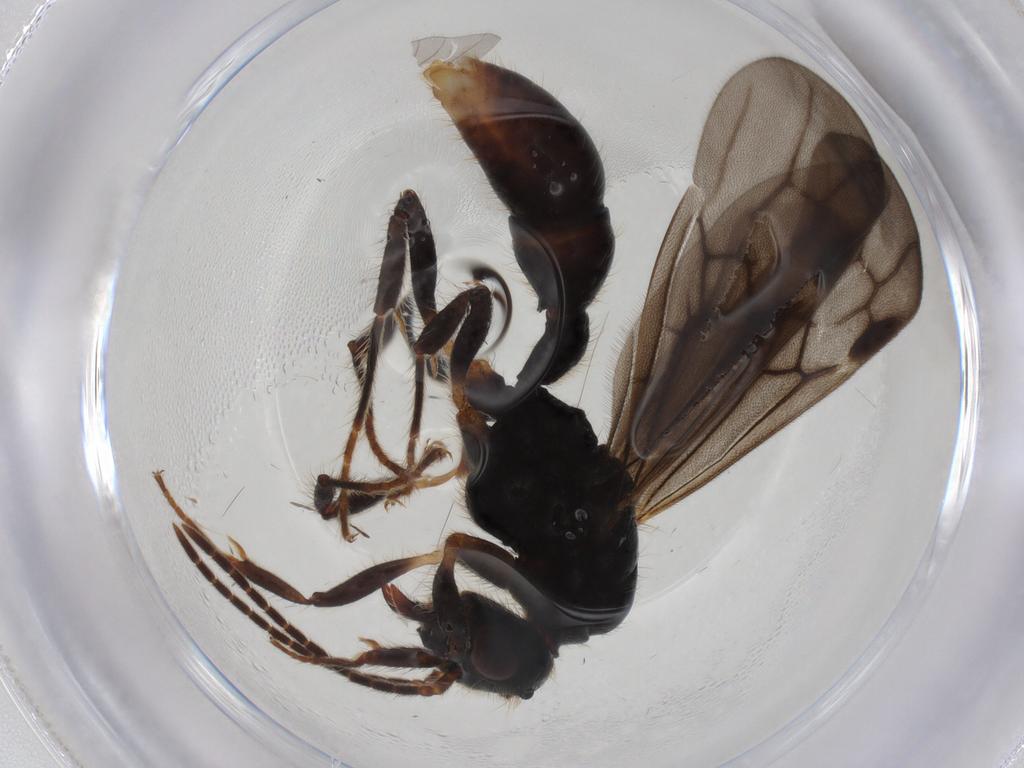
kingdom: Animalia
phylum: Arthropoda
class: Insecta
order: Hymenoptera
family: Formicidae
